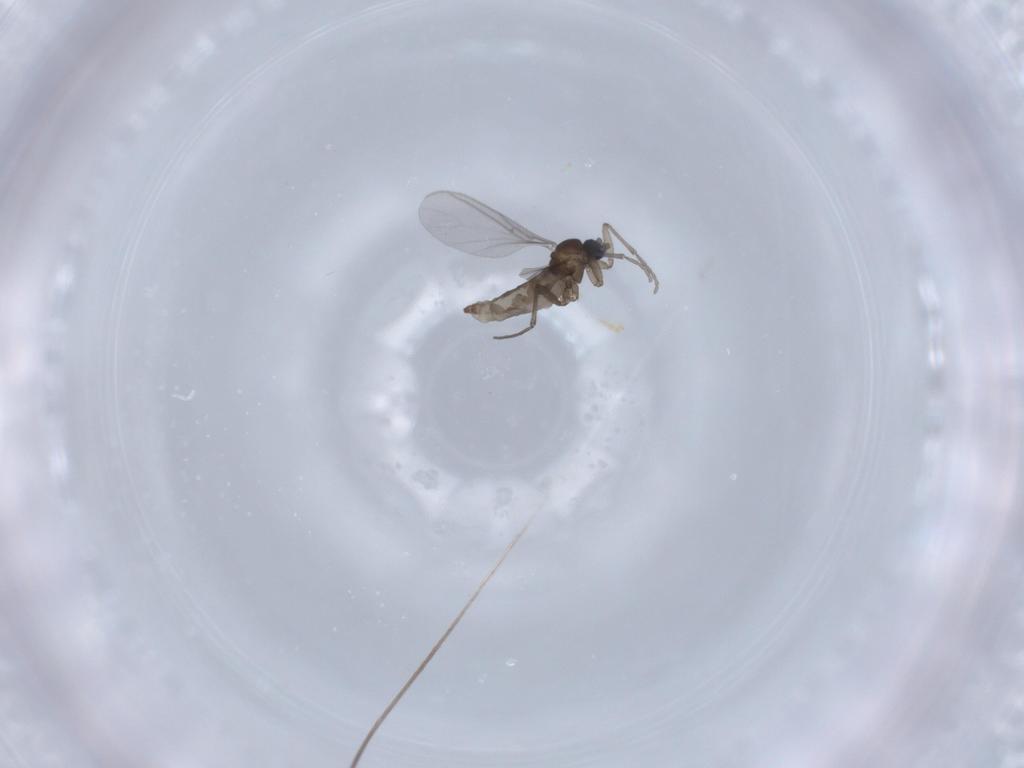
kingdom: Animalia
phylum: Arthropoda
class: Insecta
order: Diptera
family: Sciaridae
